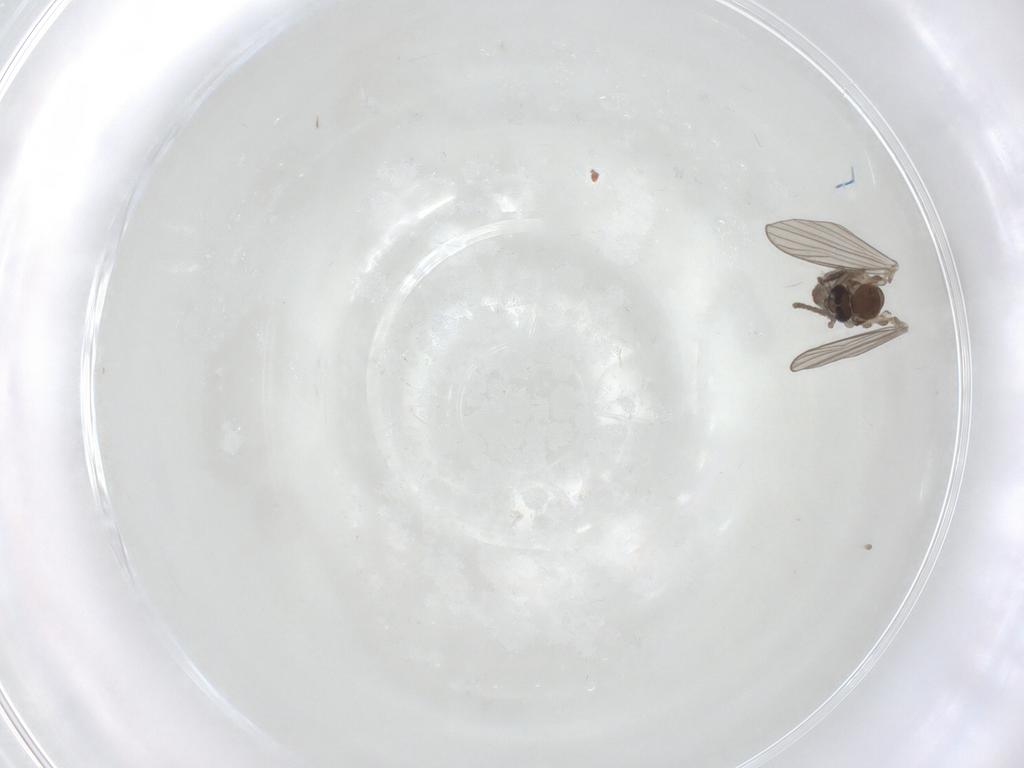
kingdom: Animalia
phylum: Arthropoda
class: Insecta
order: Diptera
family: Psychodidae
